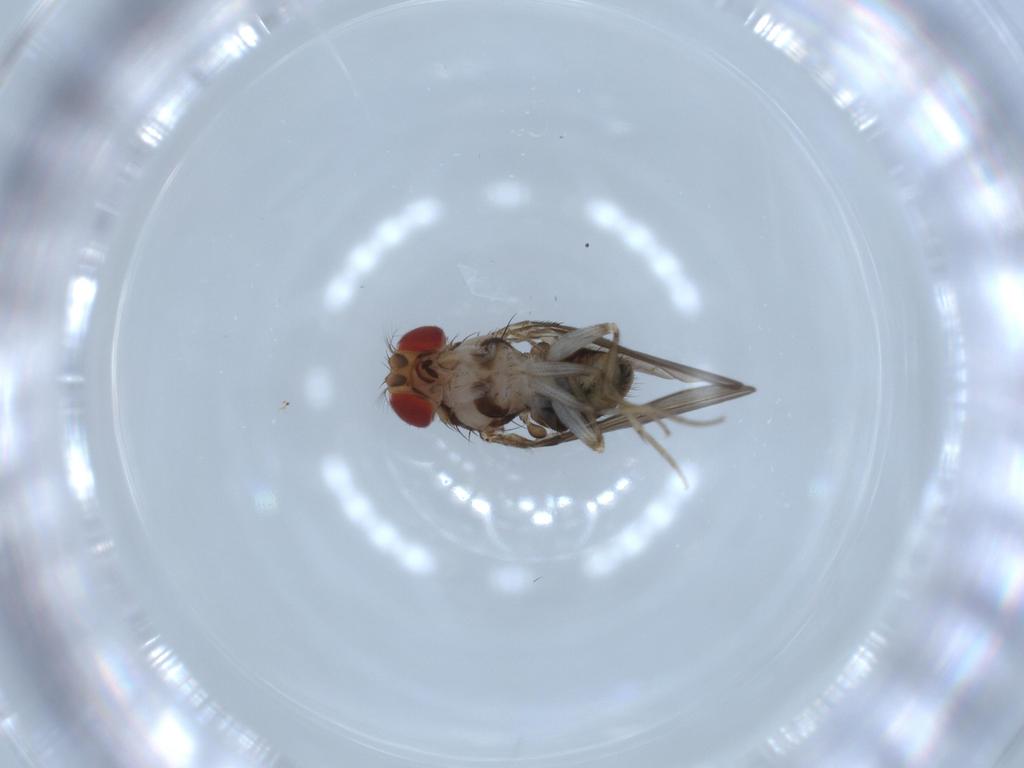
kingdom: Animalia
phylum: Arthropoda
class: Insecta
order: Diptera
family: Drosophilidae
